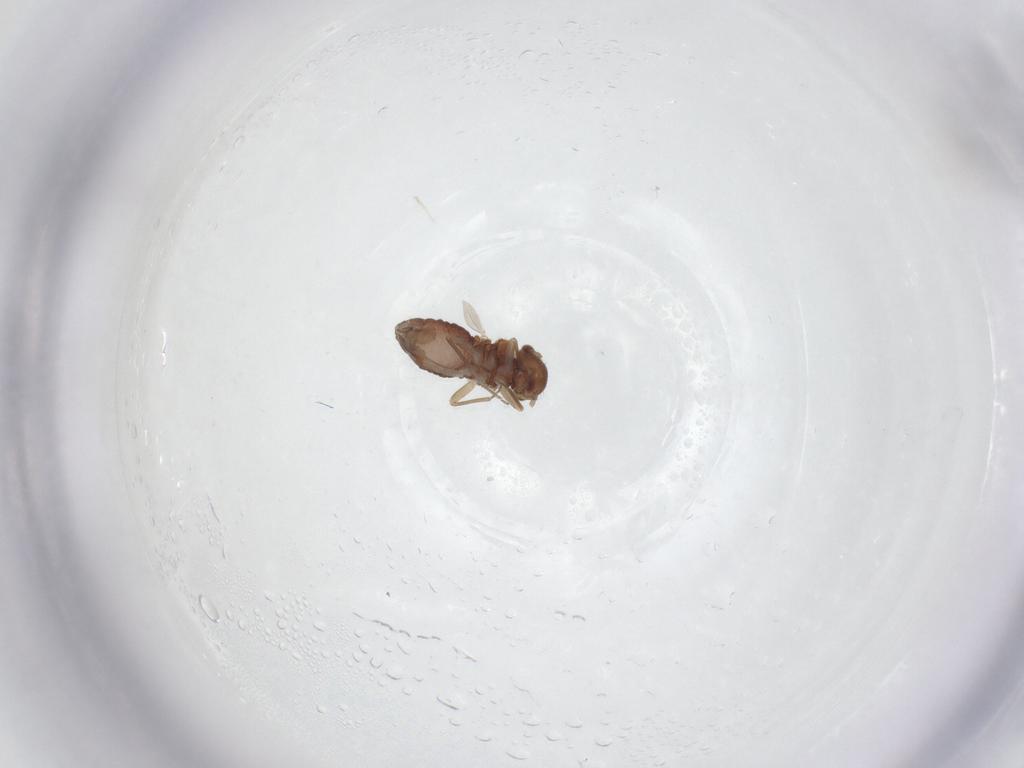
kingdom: Animalia
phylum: Arthropoda
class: Insecta
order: Psocodea
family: Ectopsocidae
